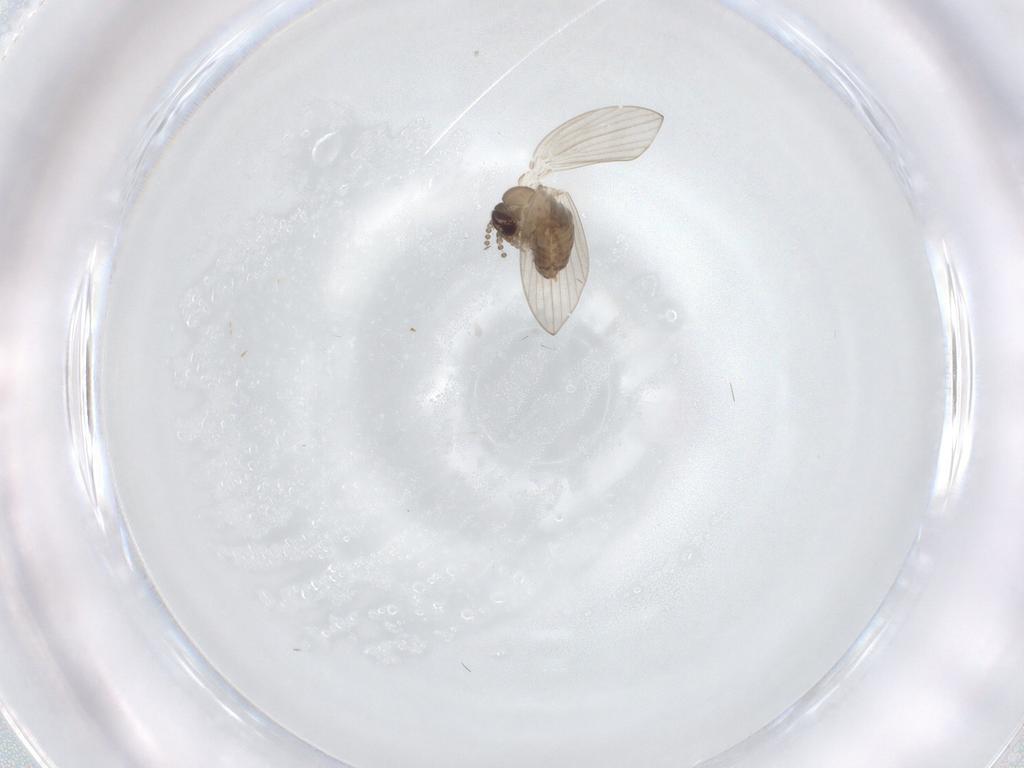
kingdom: Animalia
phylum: Arthropoda
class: Insecta
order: Diptera
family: Psychodidae
